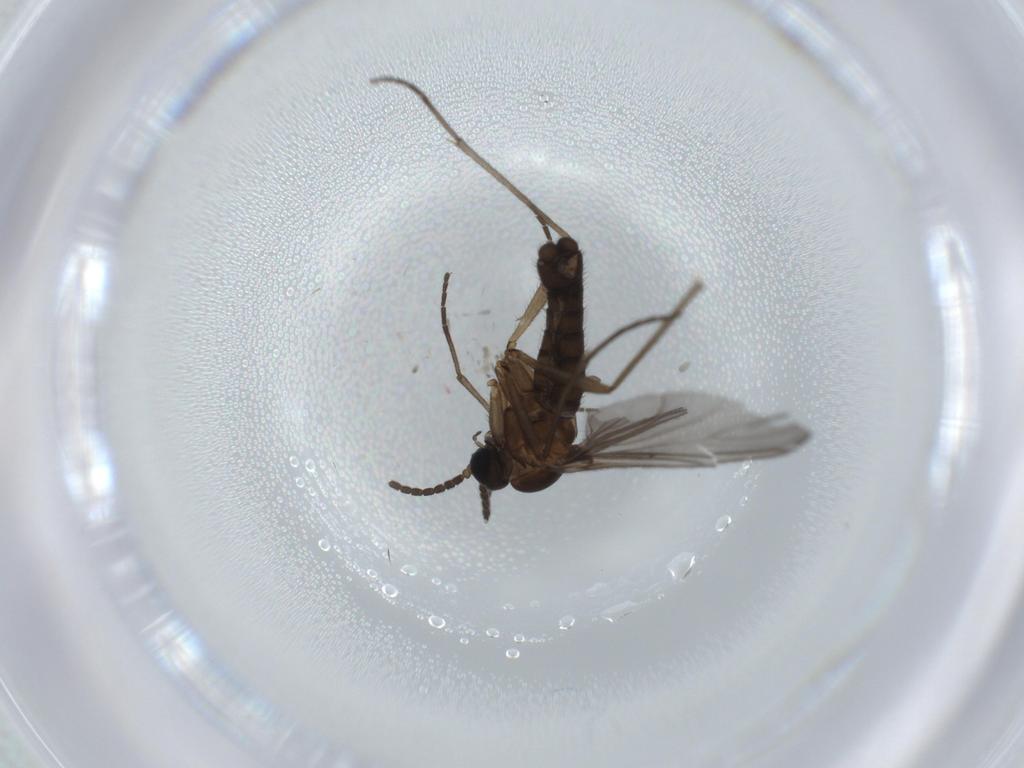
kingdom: Animalia
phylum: Arthropoda
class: Insecta
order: Diptera
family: Sciaridae
